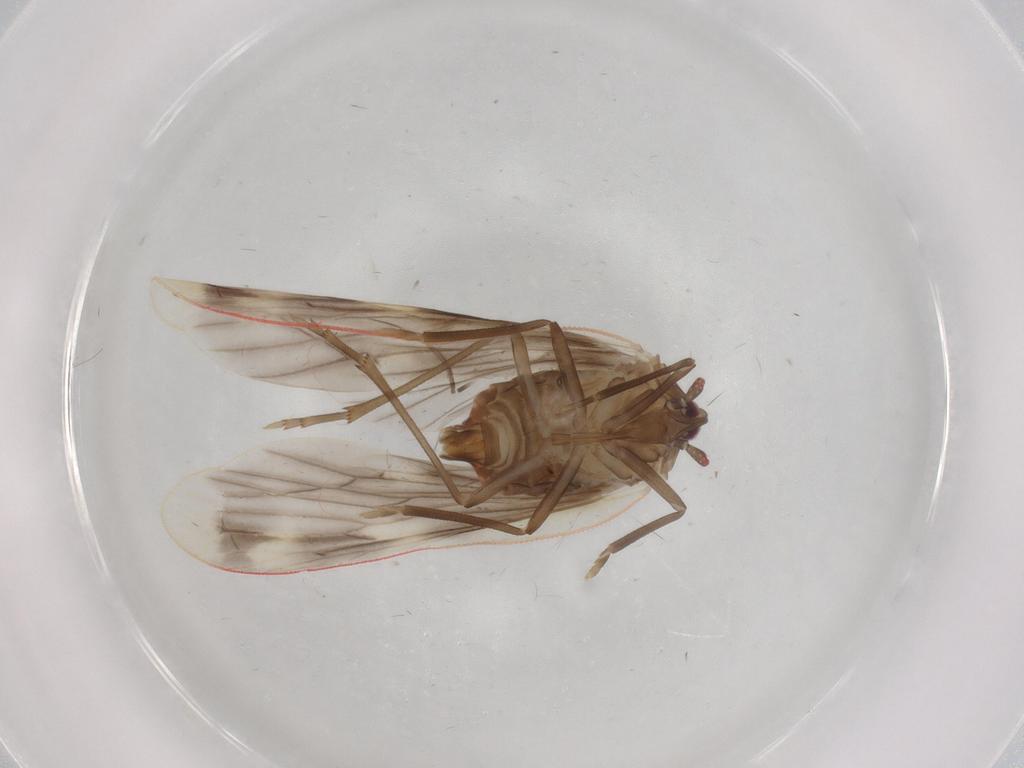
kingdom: Animalia
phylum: Arthropoda
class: Insecta
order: Hemiptera
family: Derbidae
